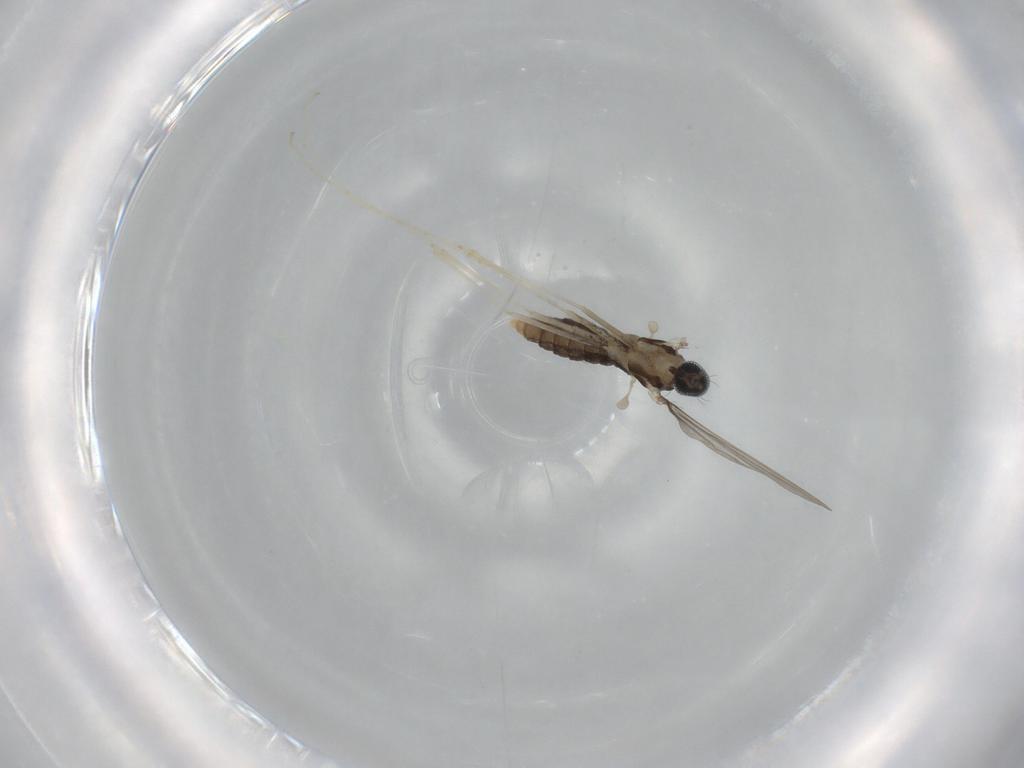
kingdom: Animalia
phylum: Arthropoda
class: Insecta
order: Diptera
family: Cecidomyiidae
